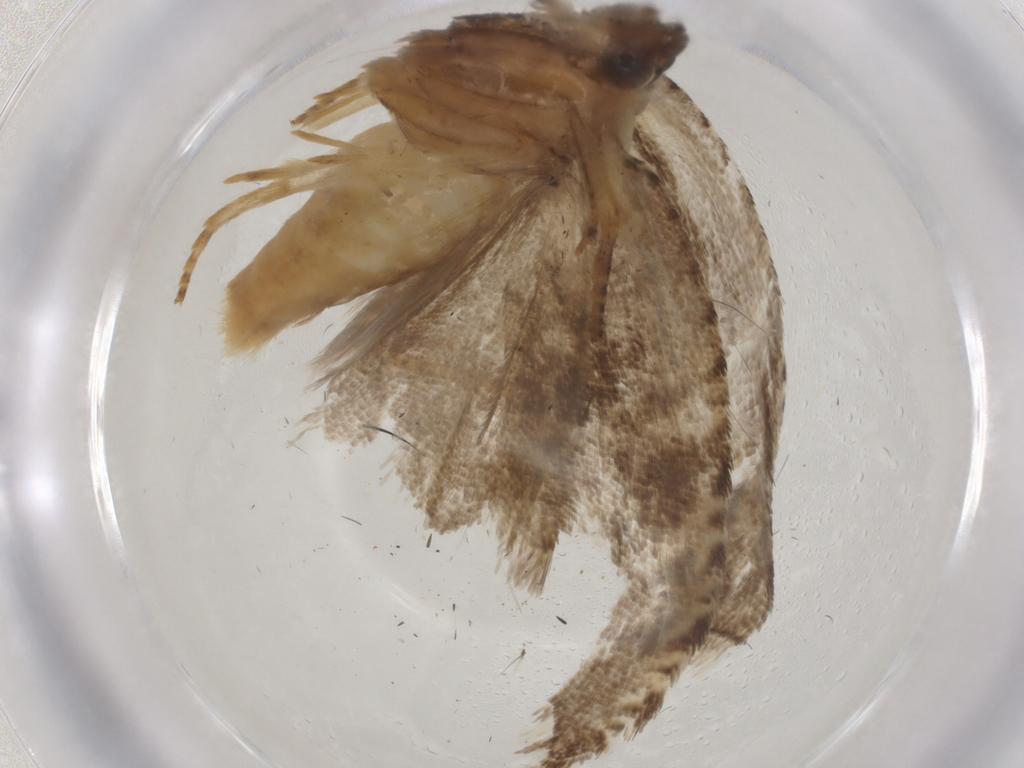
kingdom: Animalia
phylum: Arthropoda
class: Insecta
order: Lepidoptera
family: Tortricidae
